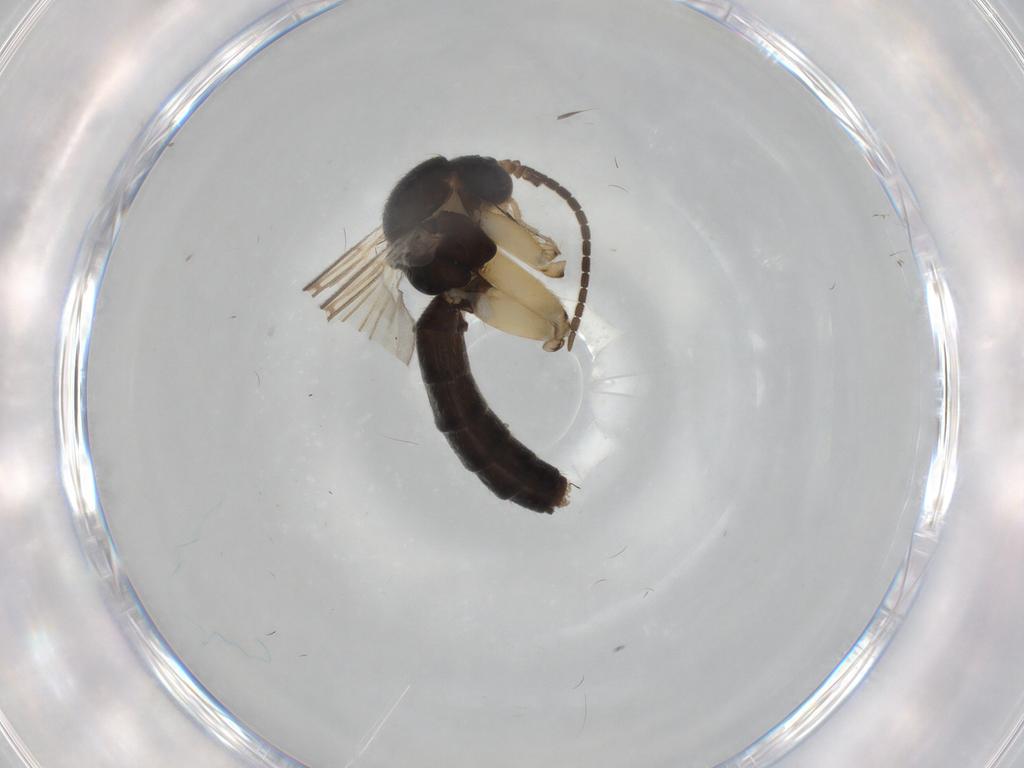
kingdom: Animalia
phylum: Arthropoda
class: Insecta
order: Diptera
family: Mycetophilidae
